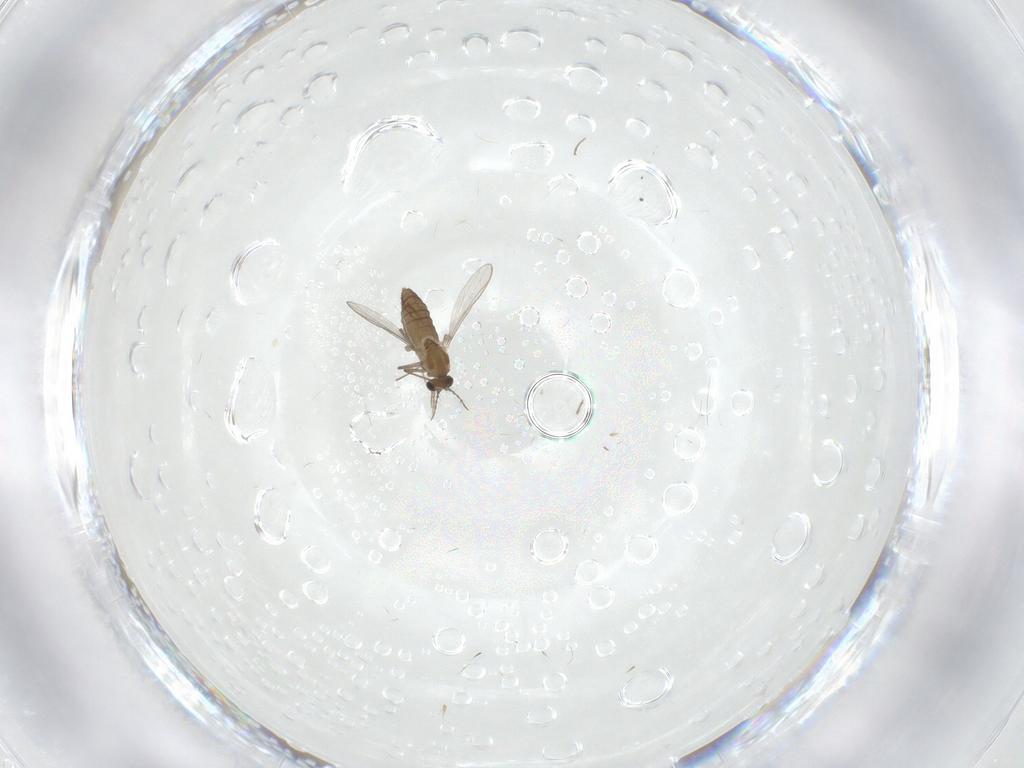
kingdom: Animalia
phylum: Arthropoda
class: Insecta
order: Diptera
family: Chironomidae
